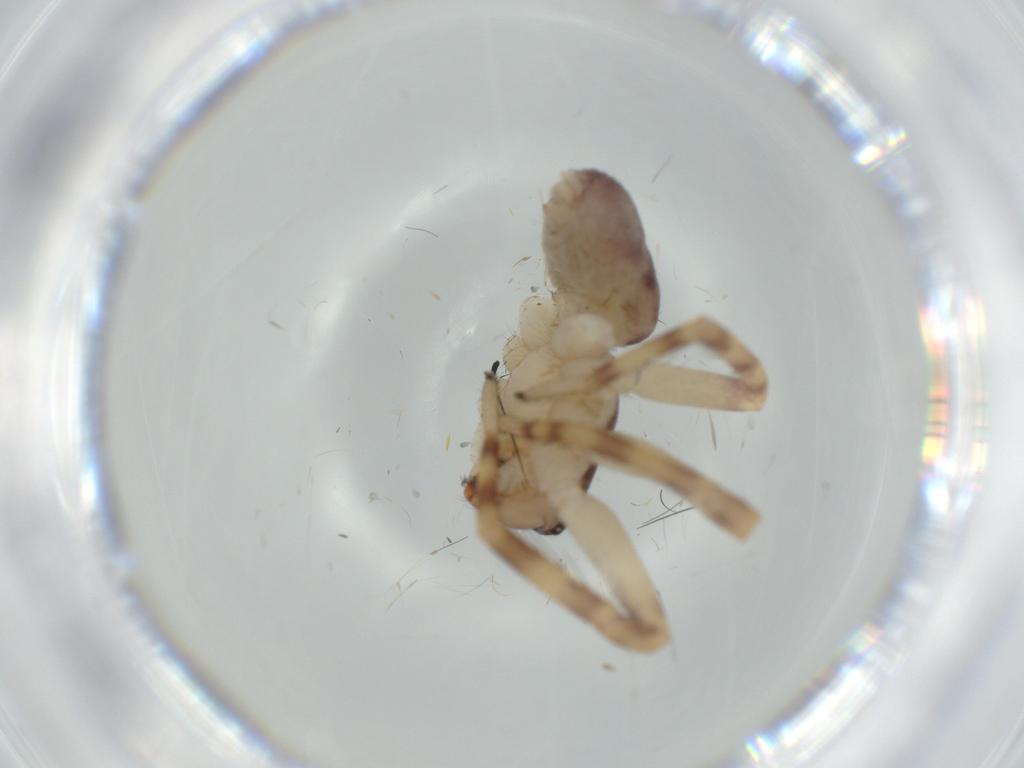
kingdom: Animalia
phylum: Arthropoda
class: Arachnida
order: Araneae
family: Corinnidae
